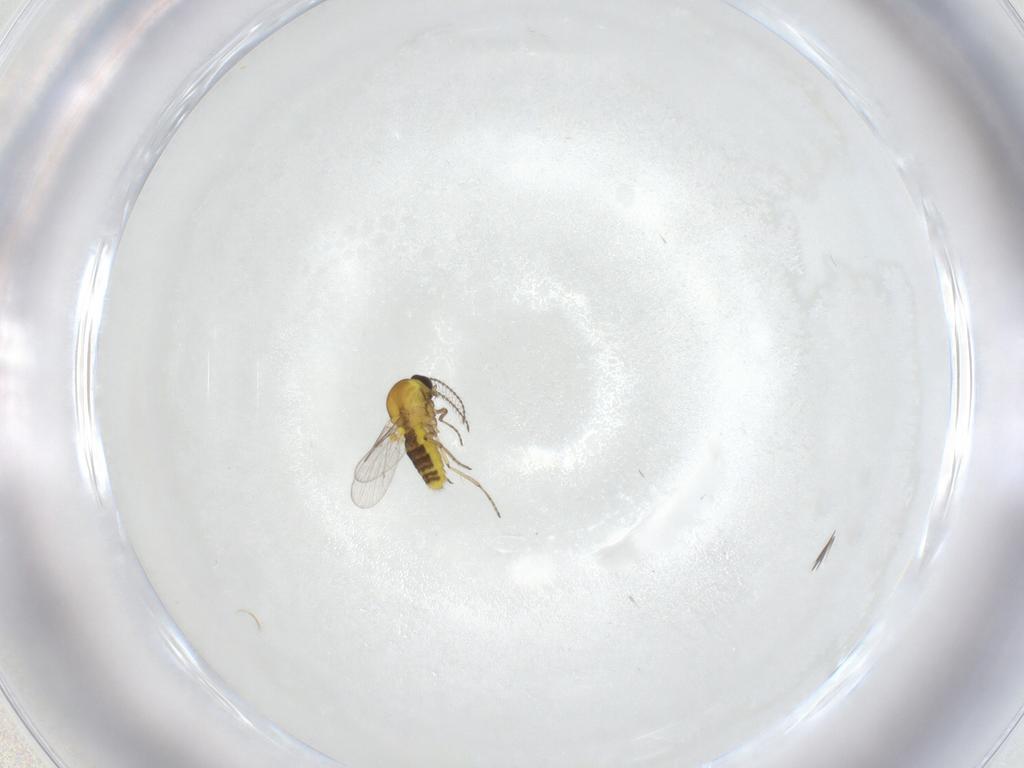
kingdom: Animalia
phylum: Arthropoda
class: Insecta
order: Diptera
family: Ceratopogonidae
